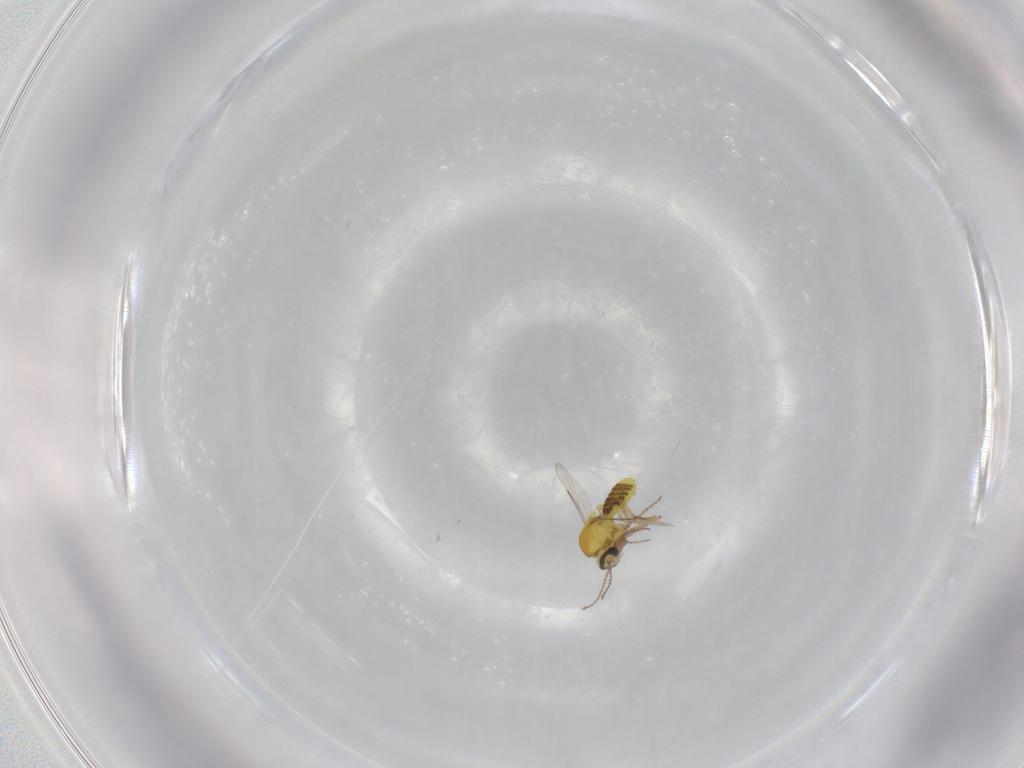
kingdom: Animalia
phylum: Arthropoda
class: Insecta
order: Diptera
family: Ceratopogonidae
